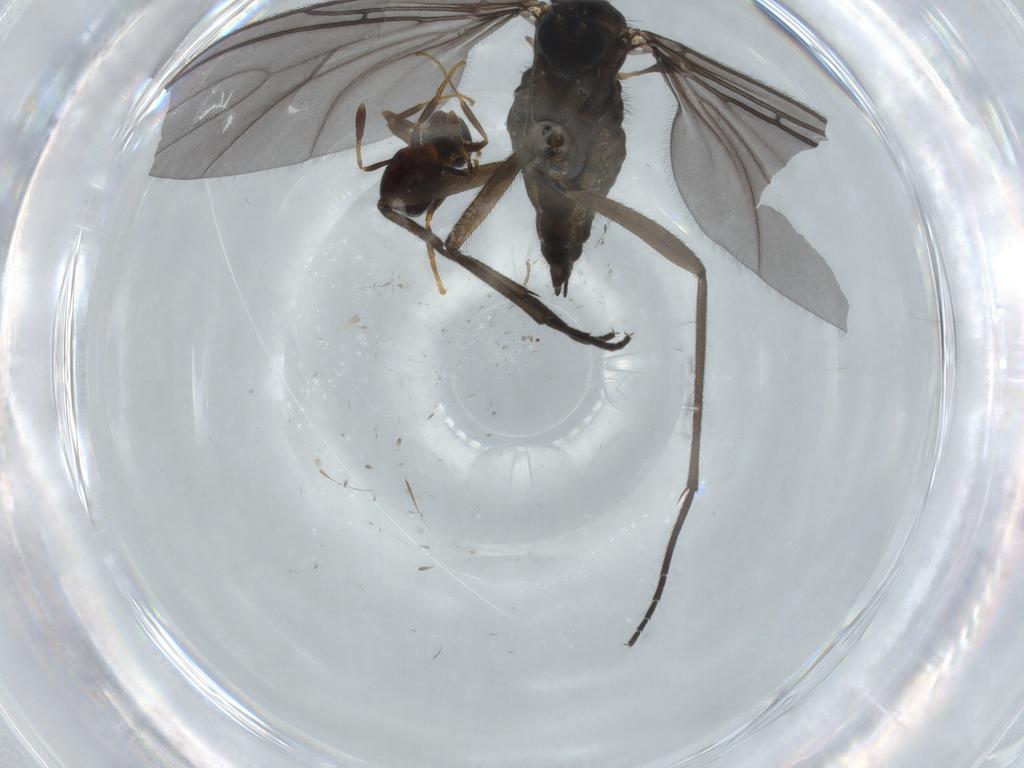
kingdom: Animalia
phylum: Arthropoda
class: Insecta
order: Diptera
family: Sciaridae
